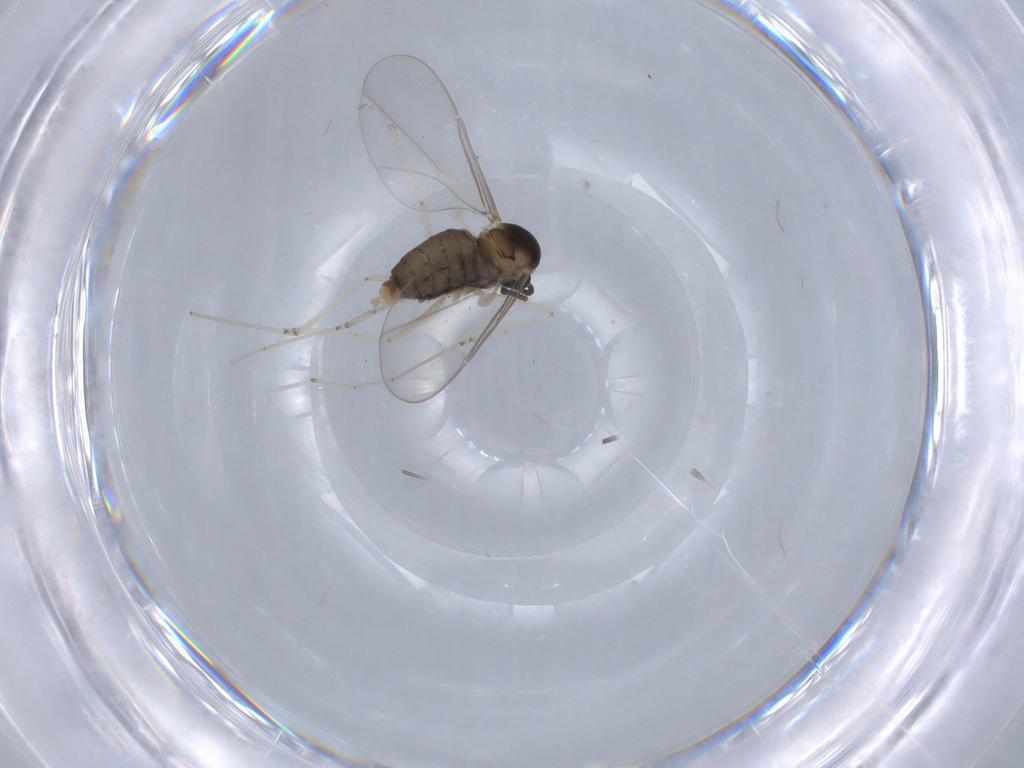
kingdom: Animalia
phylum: Arthropoda
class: Insecta
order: Diptera
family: Cecidomyiidae
